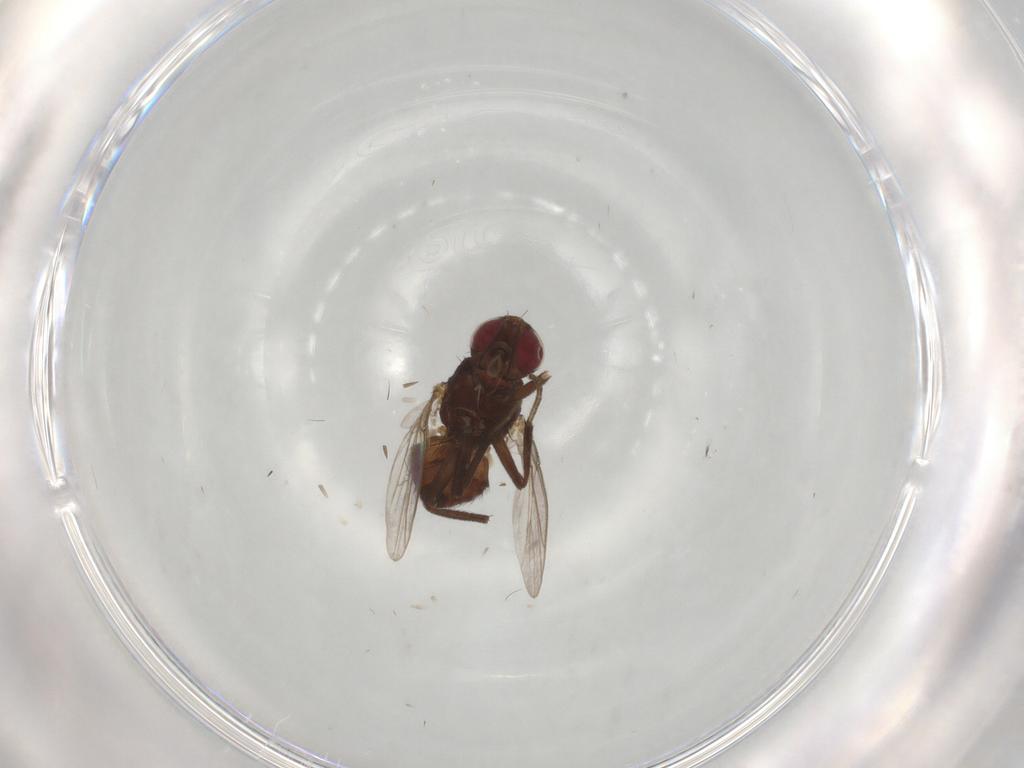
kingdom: Animalia
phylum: Arthropoda
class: Insecta
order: Diptera
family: Agromyzidae
